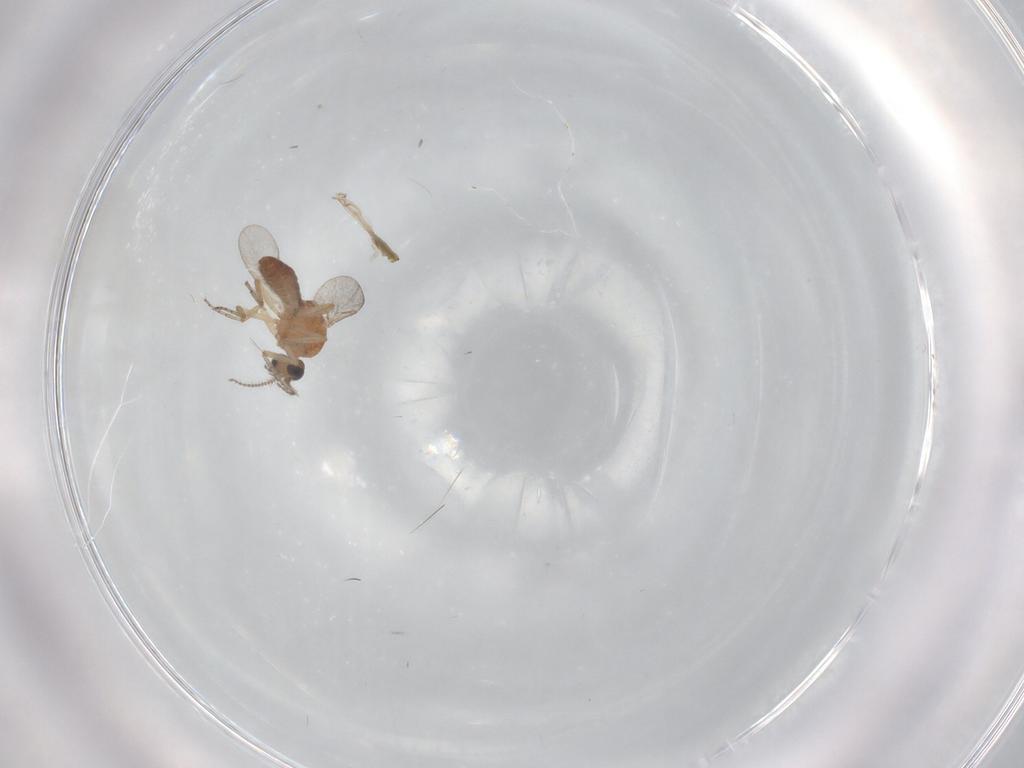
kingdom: Animalia
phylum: Arthropoda
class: Insecta
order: Diptera
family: Ceratopogonidae
